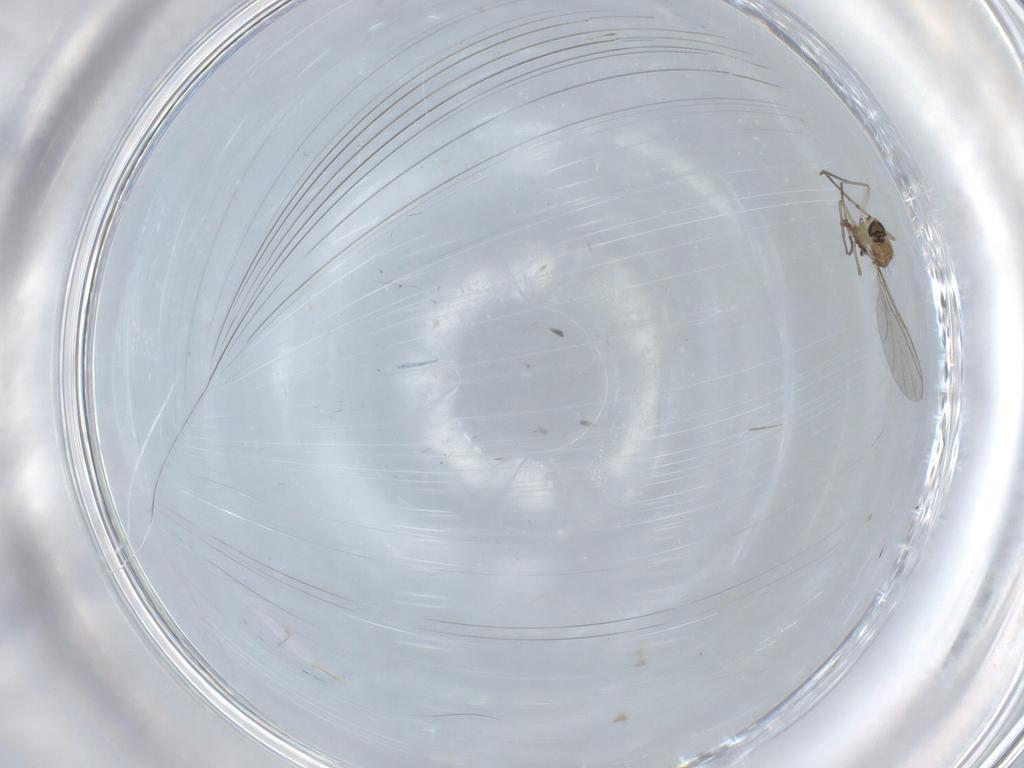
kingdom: Animalia
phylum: Arthropoda
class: Insecta
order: Diptera
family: Cecidomyiidae
